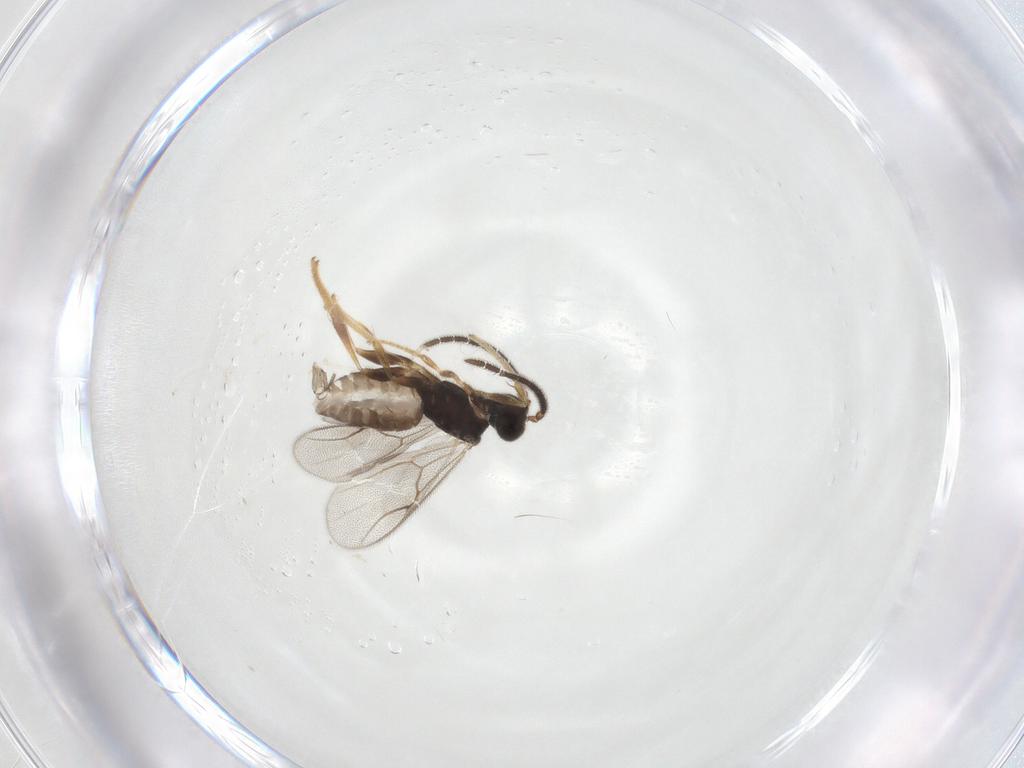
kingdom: Animalia
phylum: Arthropoda
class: Insecta
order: Hymenoptera
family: Dryinidae
